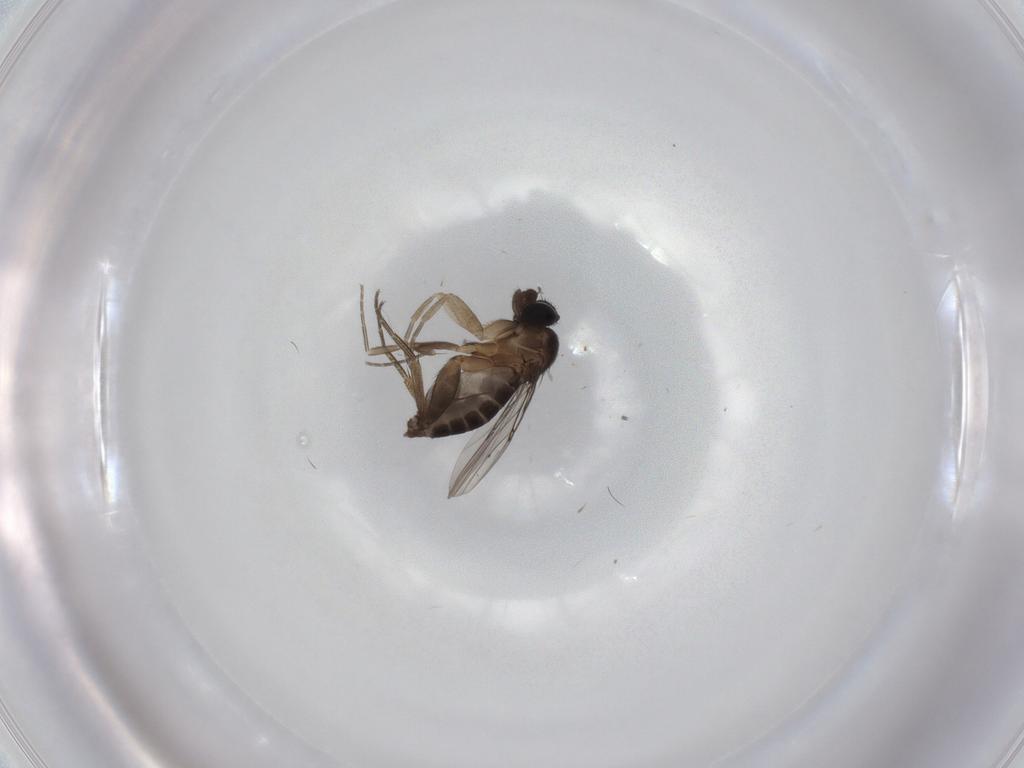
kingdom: Animalia
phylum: Arthropoda
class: Insecta
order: Diptera
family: Phoridae
